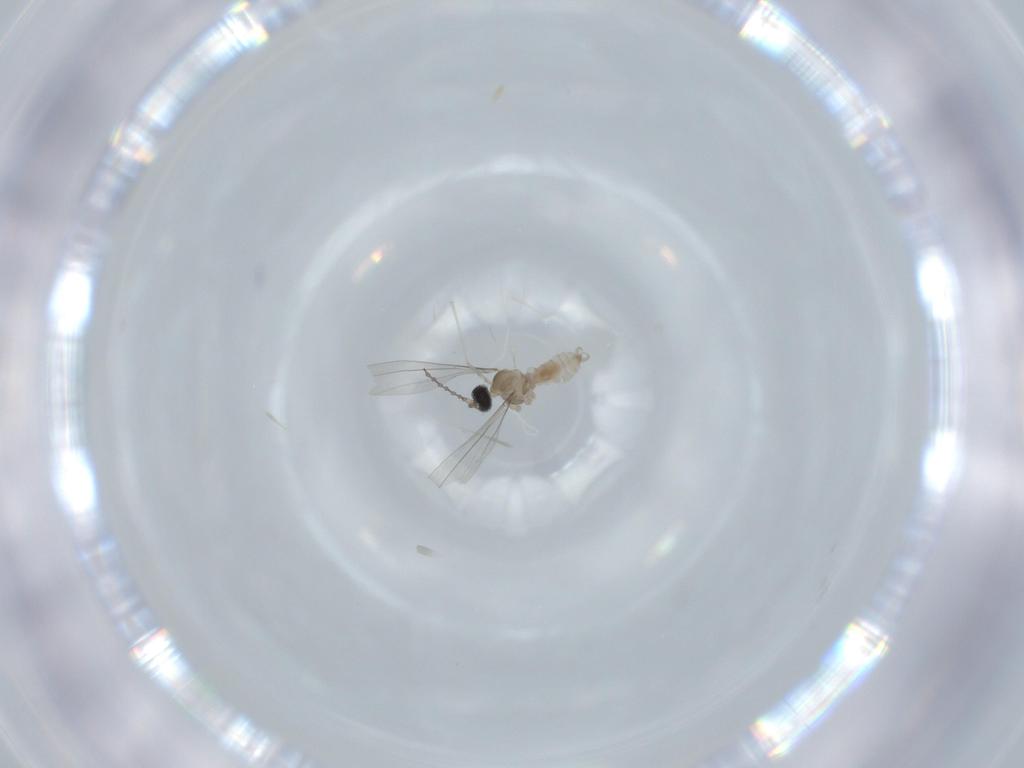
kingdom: Animalia
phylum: Arthropoda
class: Insecta
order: Diptera
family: Cecidomyiidae
